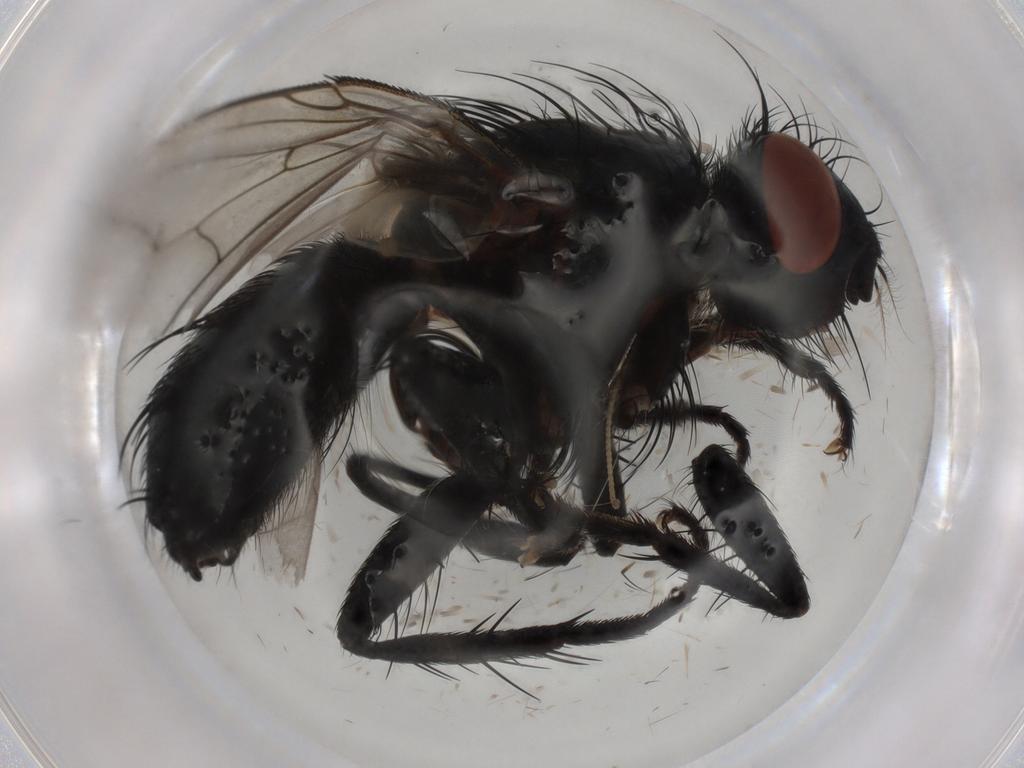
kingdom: Animalia
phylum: Arthropoda
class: Insecta
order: Diptera
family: Sarcophagidae
